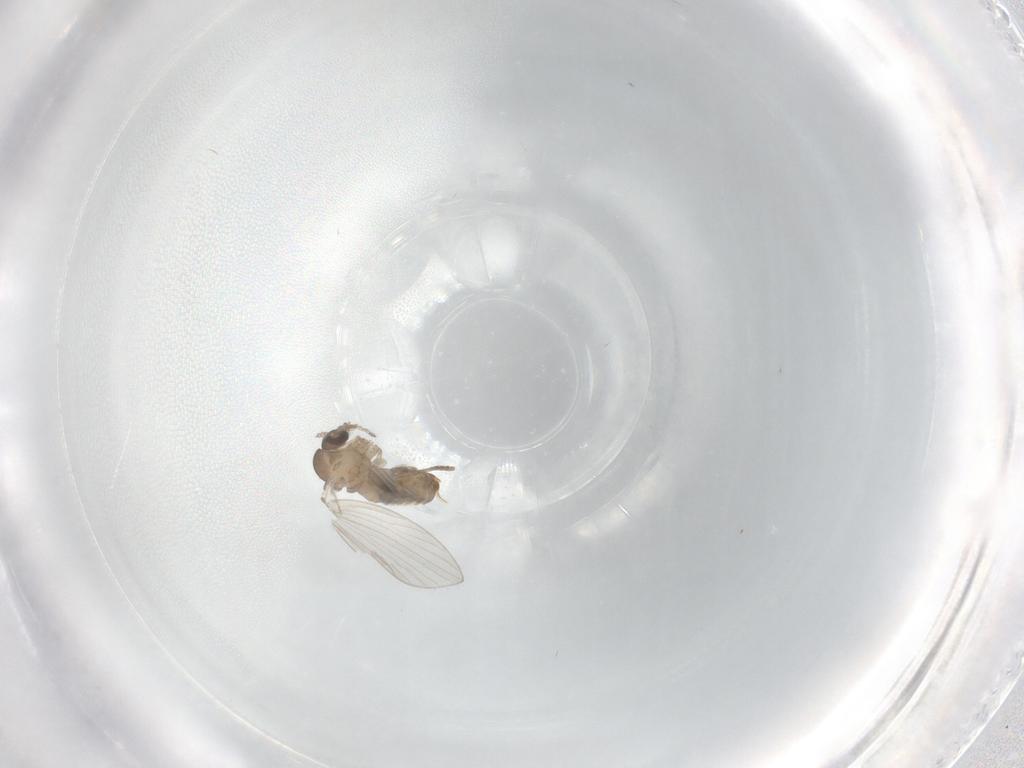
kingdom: Animalia
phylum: Arthropoda
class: Insecta
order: Diptera
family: Psychodidae
